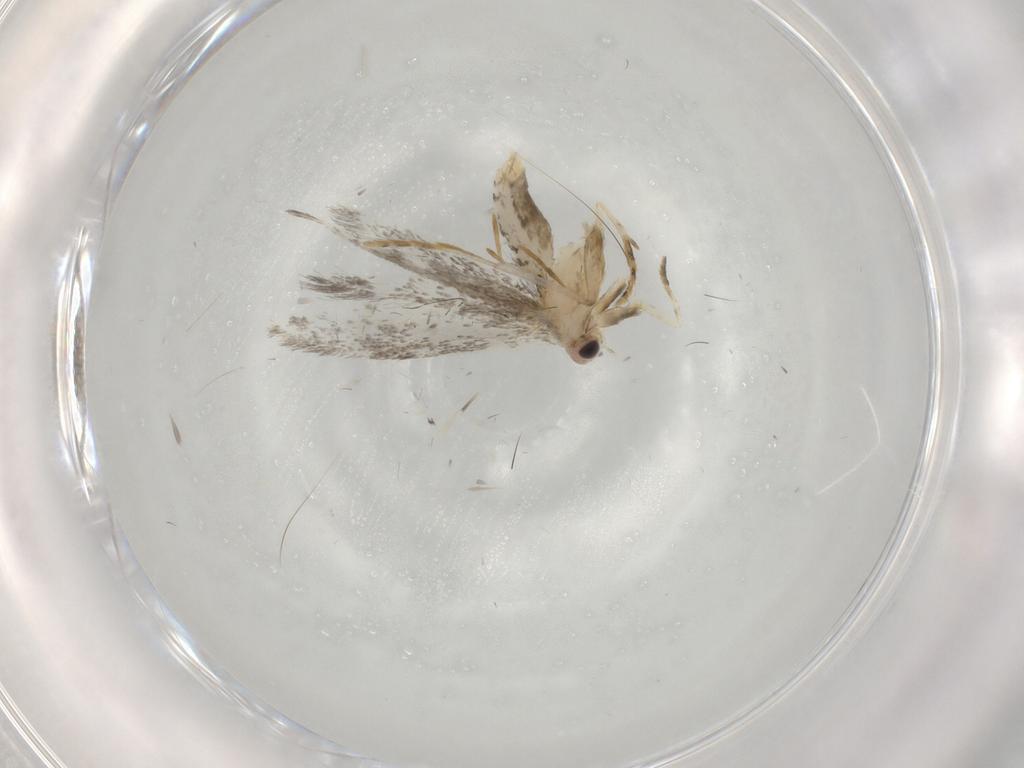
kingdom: Animalia
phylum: Arthropoda
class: Insecta
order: Lepidoptera
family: Tineidae
